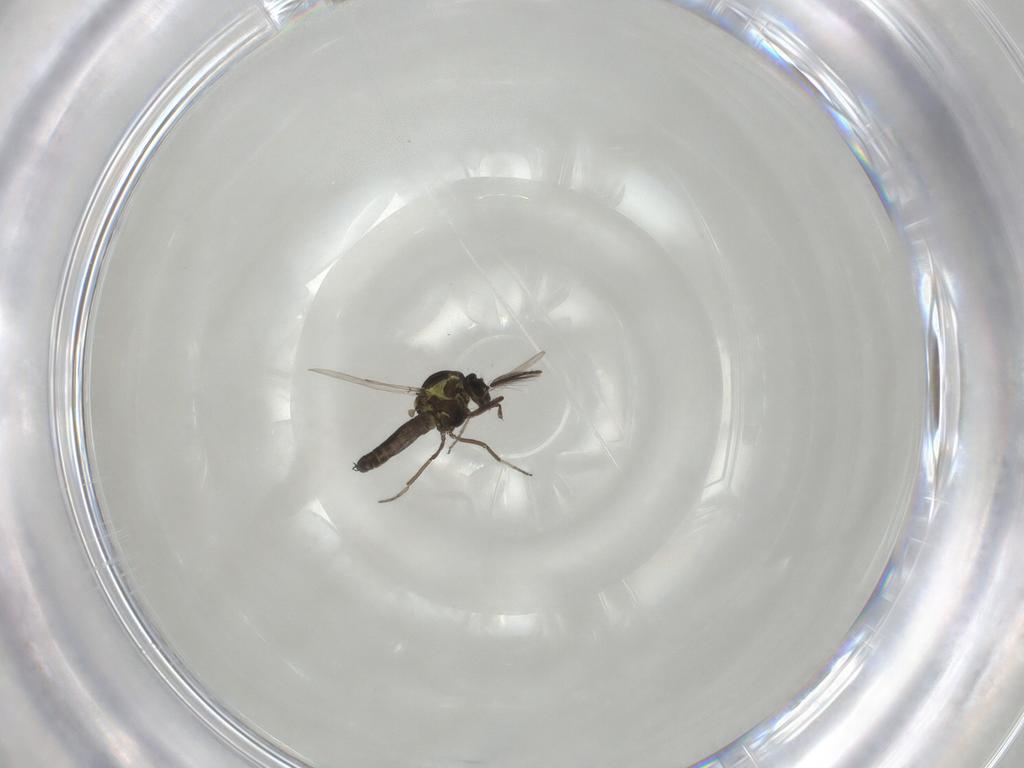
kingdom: Animalia
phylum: Arthropoda
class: Insecta
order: Diptera
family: Ceratopogonidae
